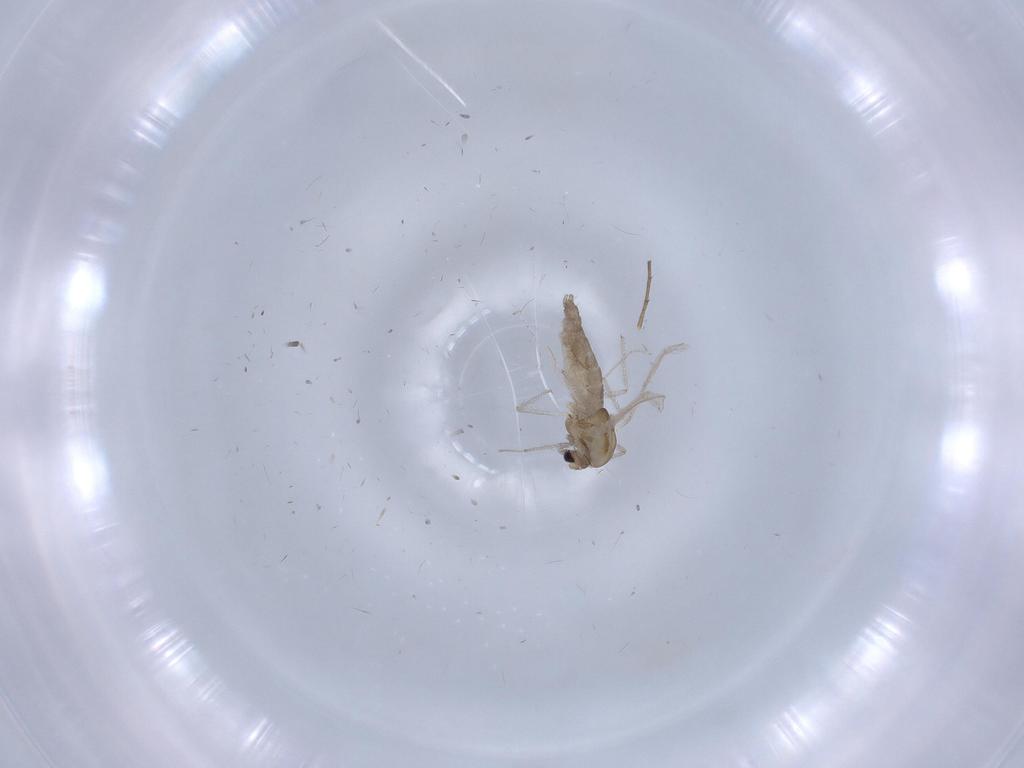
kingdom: Animalia
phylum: Arthropoda
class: Insecta
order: Diptera
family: Chironomidae
